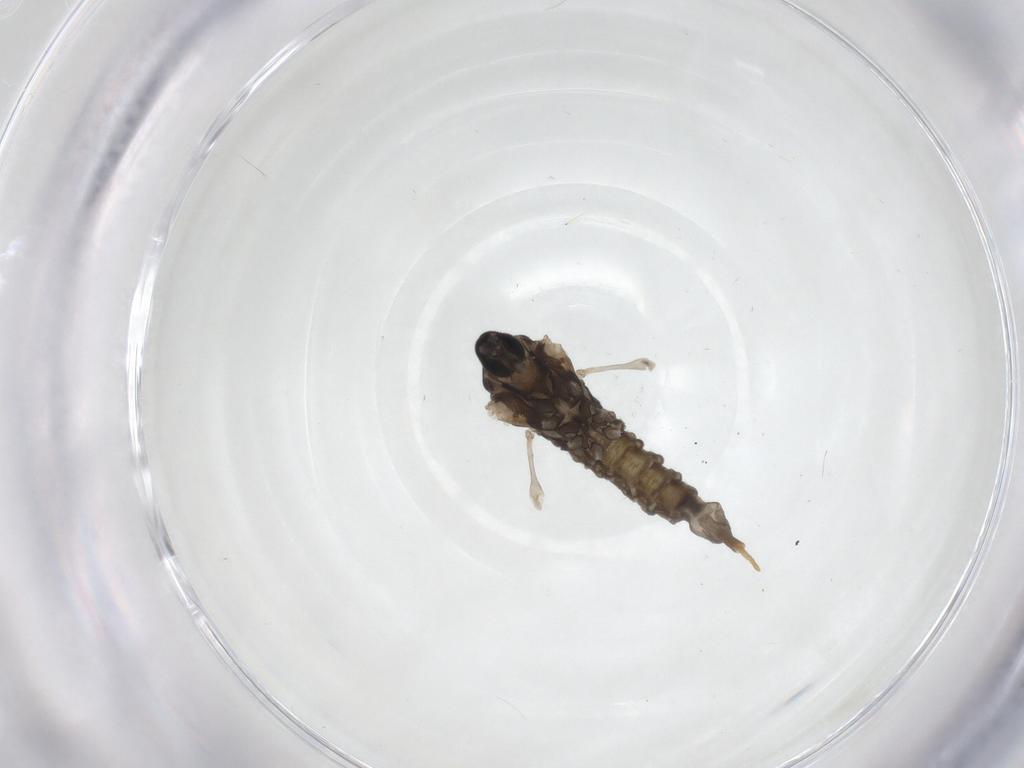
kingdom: Animalia
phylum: Arthropoda
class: Insecta
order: Diptera
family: Cecidomyiidae
